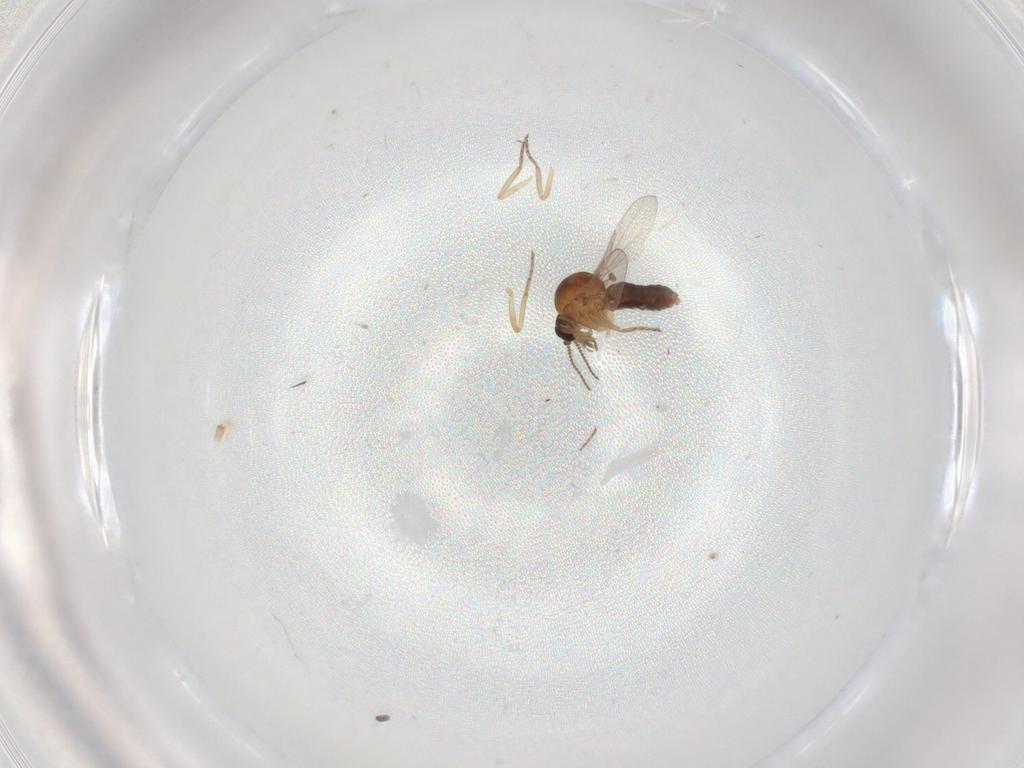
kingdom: Animalia
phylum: Arthropoda
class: Insecta
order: Diptera
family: Ceratopogonidae
